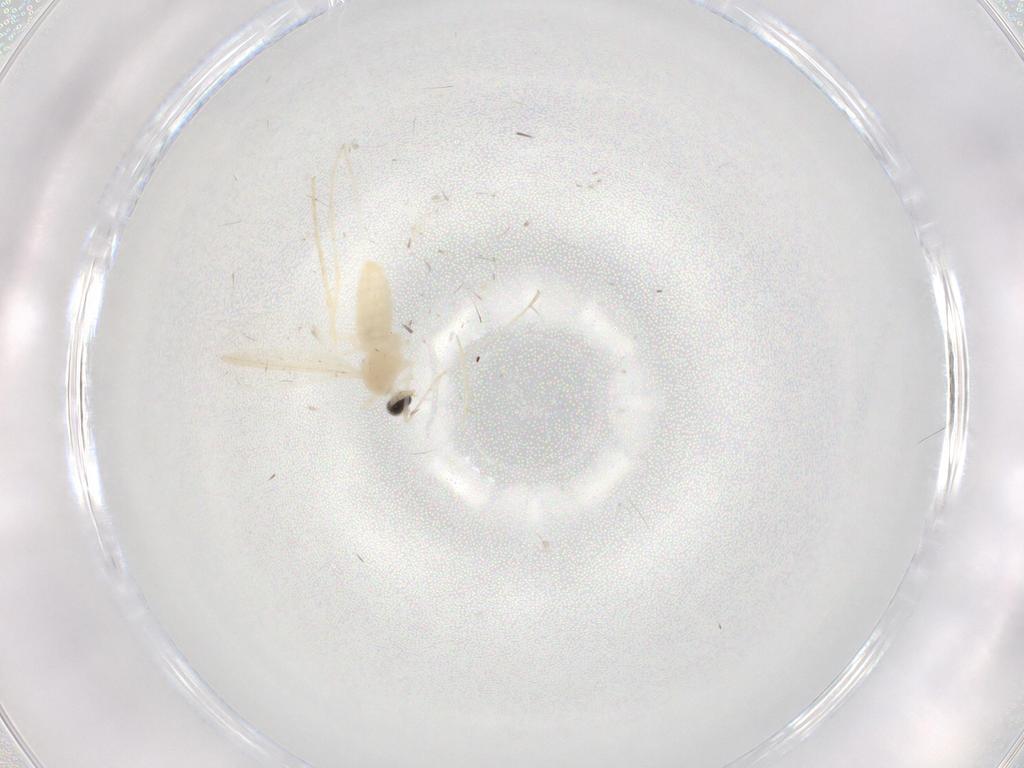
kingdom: Animalia
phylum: Arthropoda
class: Insecta
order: Diptera
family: Cecidomyiidae
